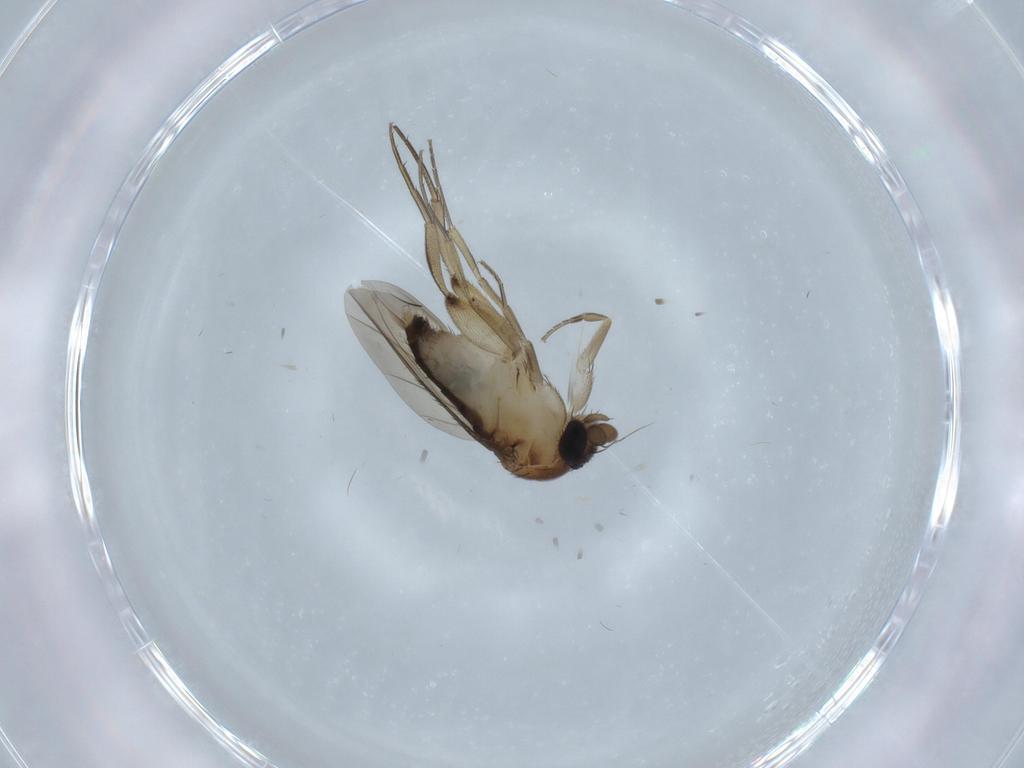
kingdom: Animalia
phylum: Arthropoda
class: Insecta
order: Diptera
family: Phoridae
